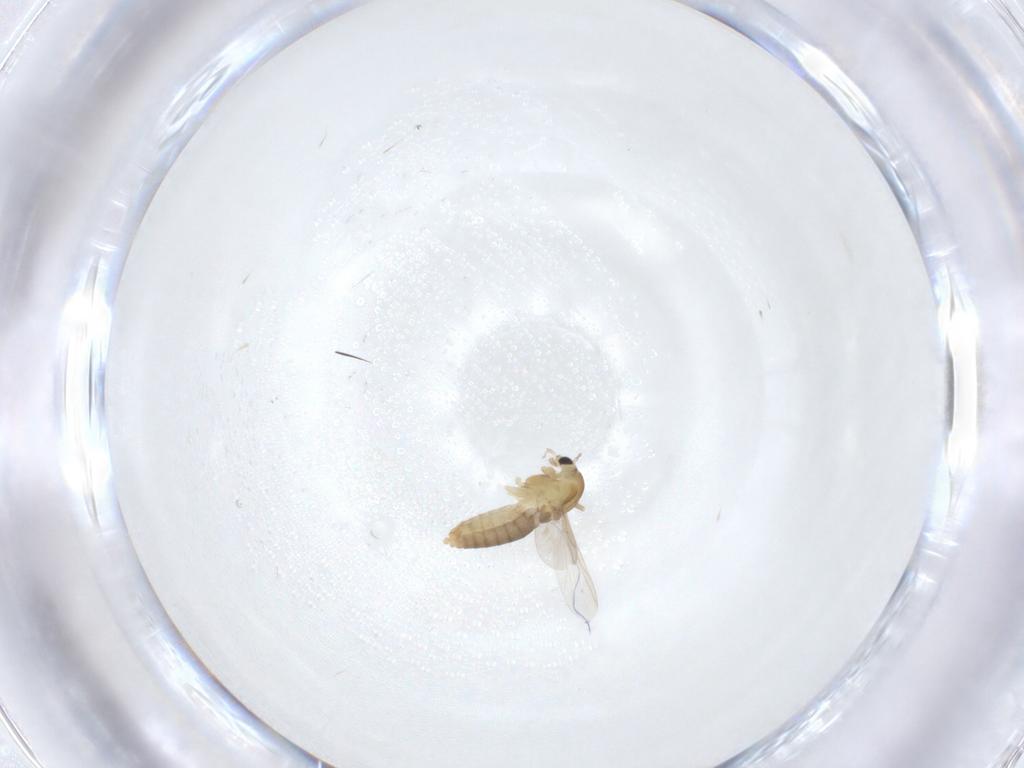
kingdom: Animalia
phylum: Arthropoda
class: Insecta
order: Diptera
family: Chironomidae
